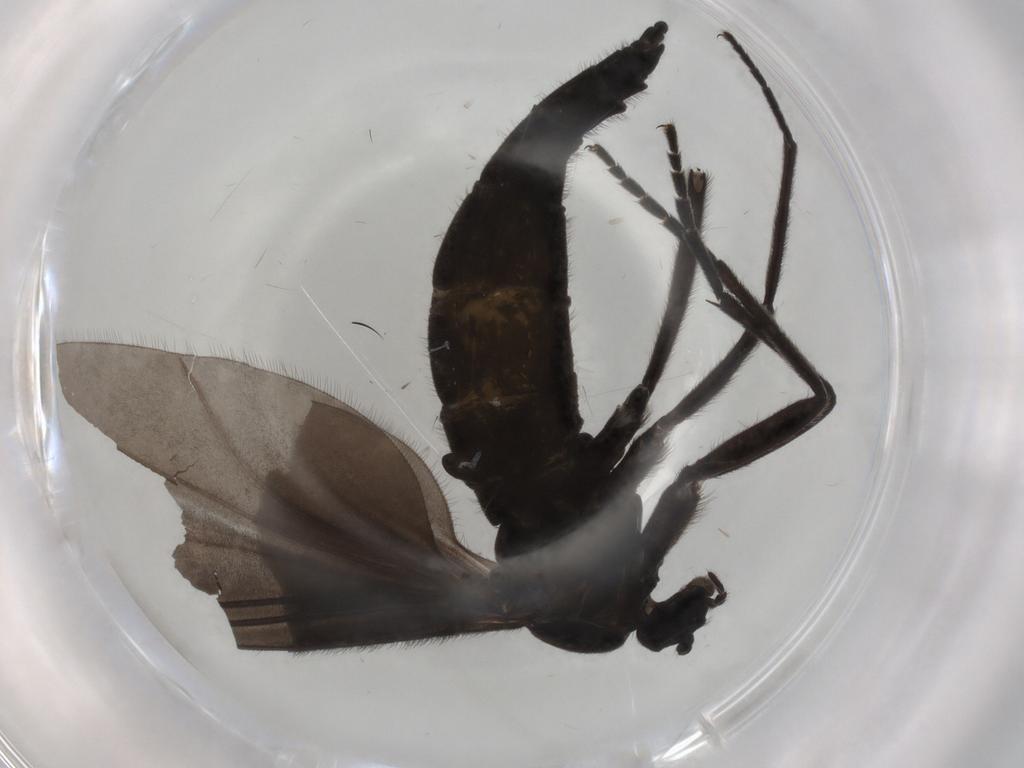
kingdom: Animalia
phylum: Arthropoda
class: Insecta
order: Diptera
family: Sciaridae
